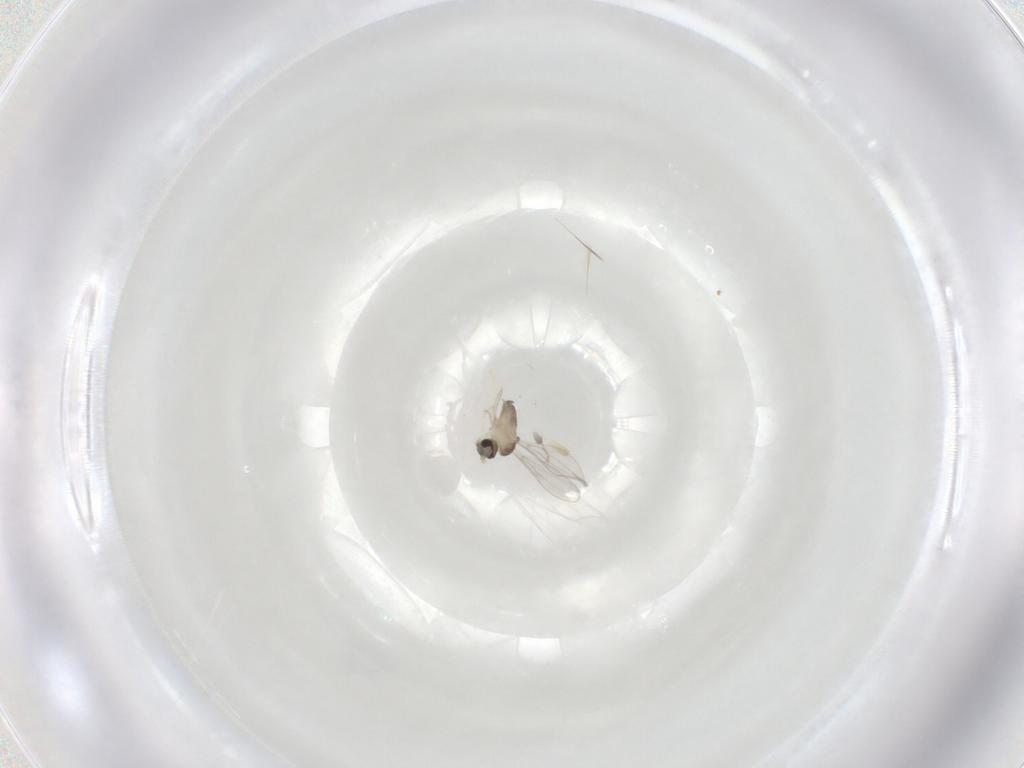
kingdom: Animalia
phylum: Arthropoda
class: Insecta
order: Diptera
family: Cecidomyiidae
